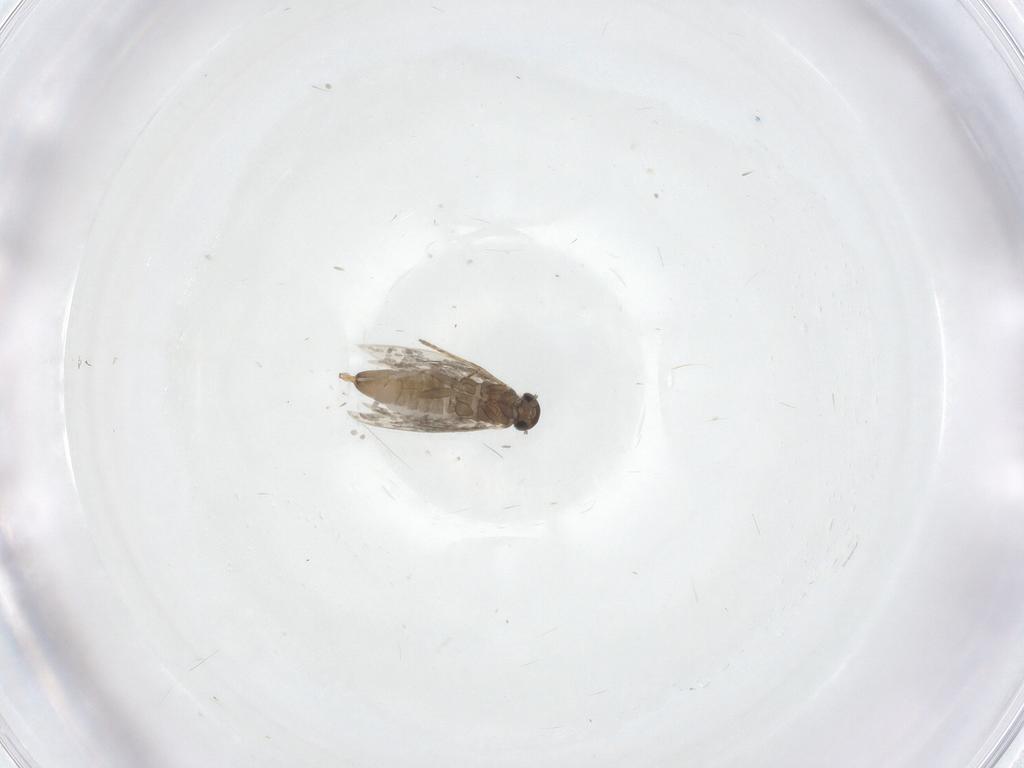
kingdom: Animalia
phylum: Arthropoda
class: Insecta
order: Lepidoptera
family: Heliozelidae
